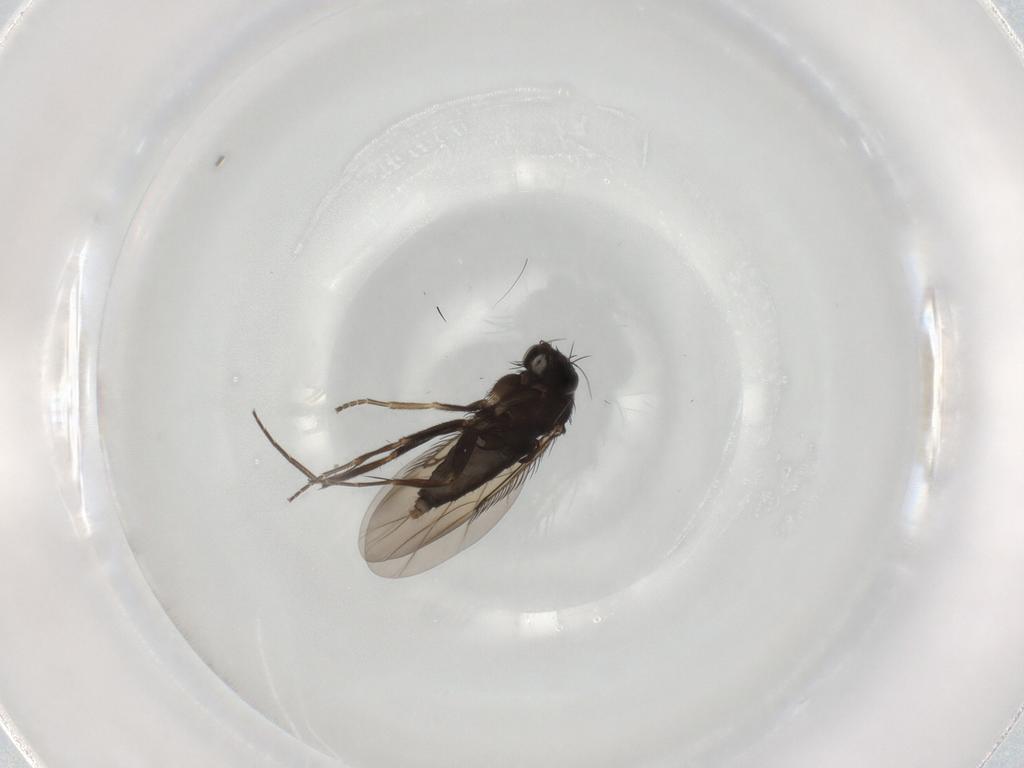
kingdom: Animalia
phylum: Arthropoda
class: Insecta
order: Diptera
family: Phoridae
